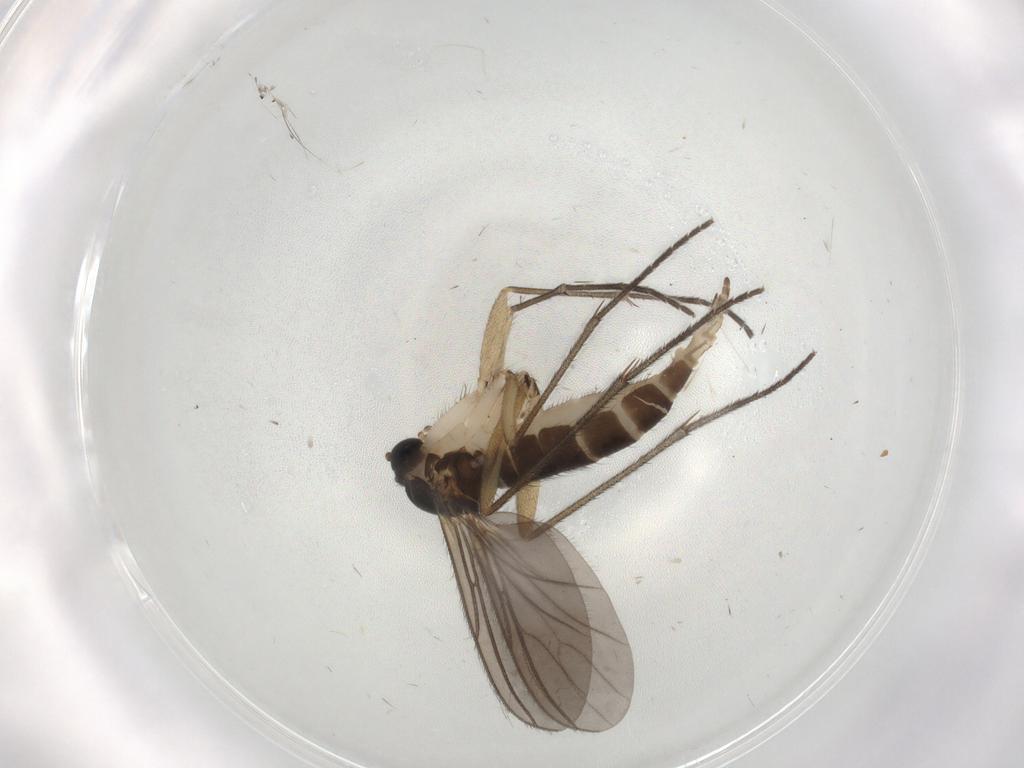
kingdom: Animalia
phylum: Arthropoda
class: Insecta
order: Diptera
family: Sciaridae
